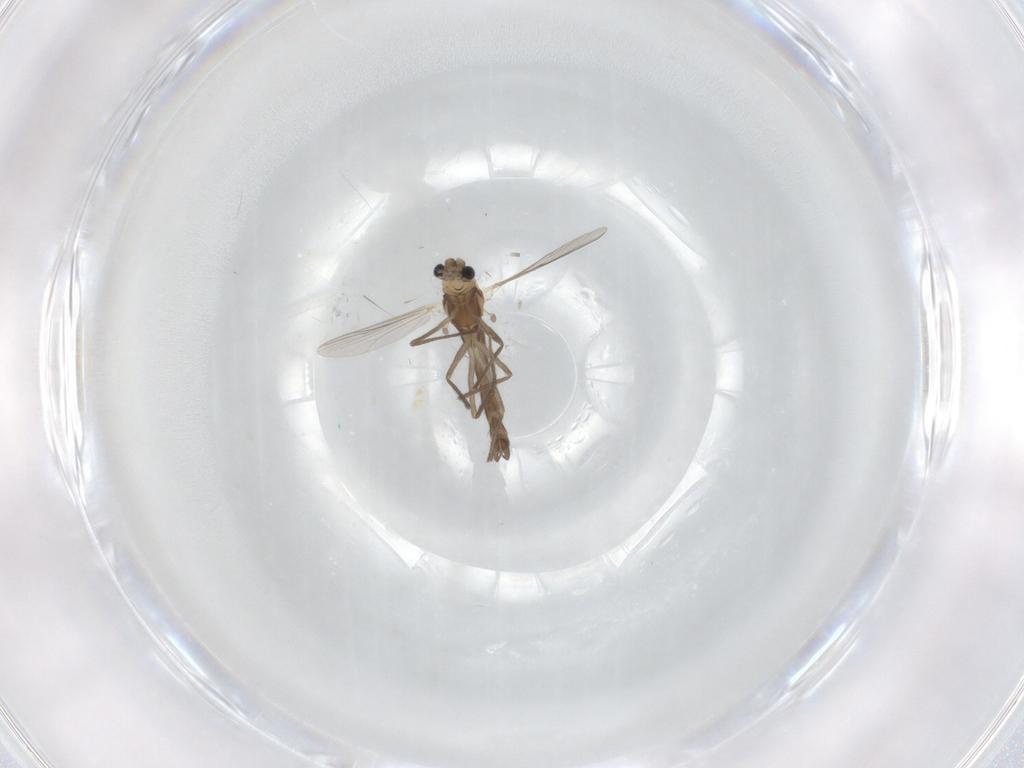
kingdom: Animalia
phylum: Arthropoda
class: Insecta
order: Diptera
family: Chironomidae
